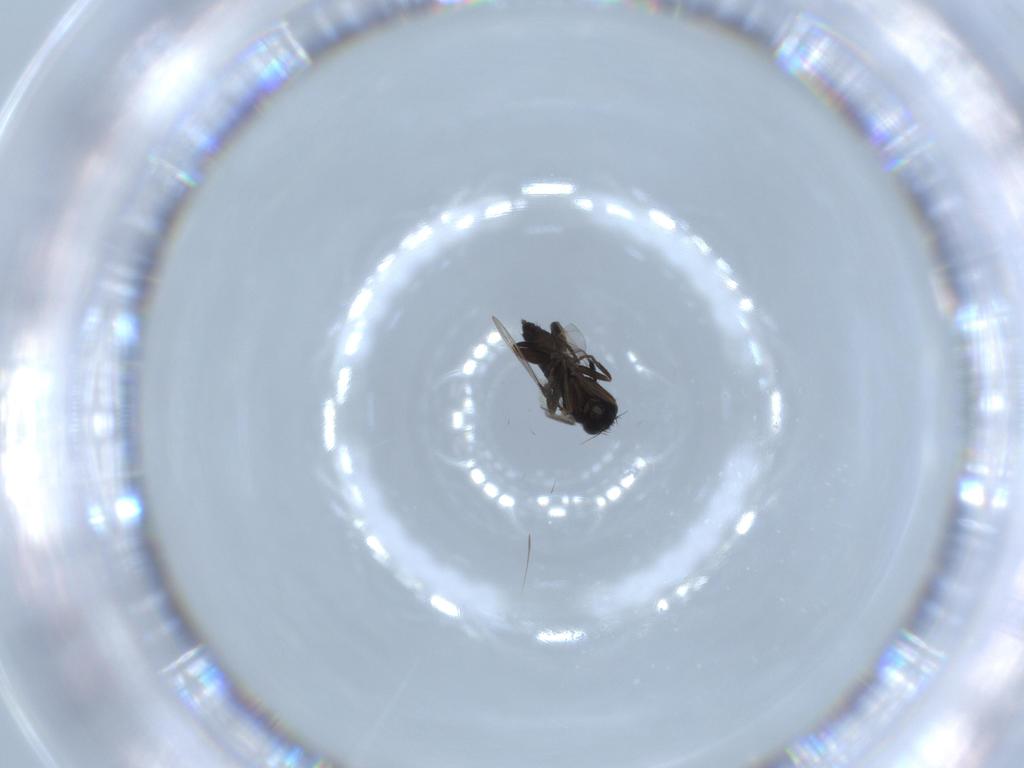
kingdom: Animalia
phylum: Arthropoda
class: Insecta
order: Diptera
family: Phoridae
